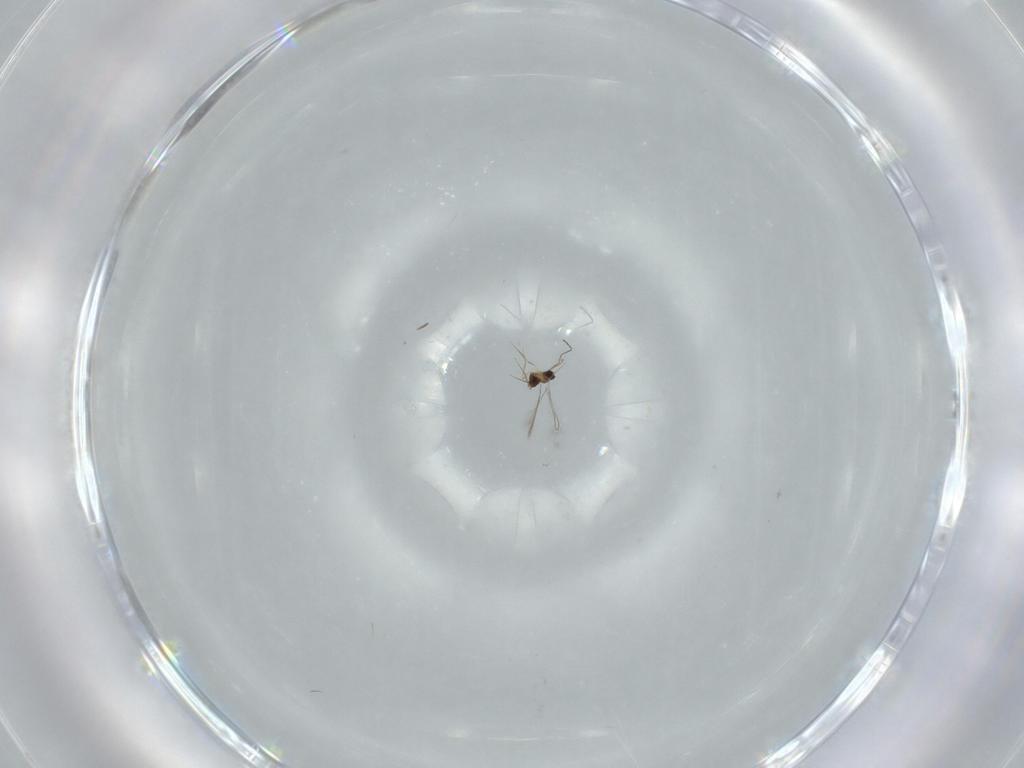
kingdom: Animalia
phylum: Arthropoda
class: Insecta
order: Hymenoptera
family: Mymaridae
